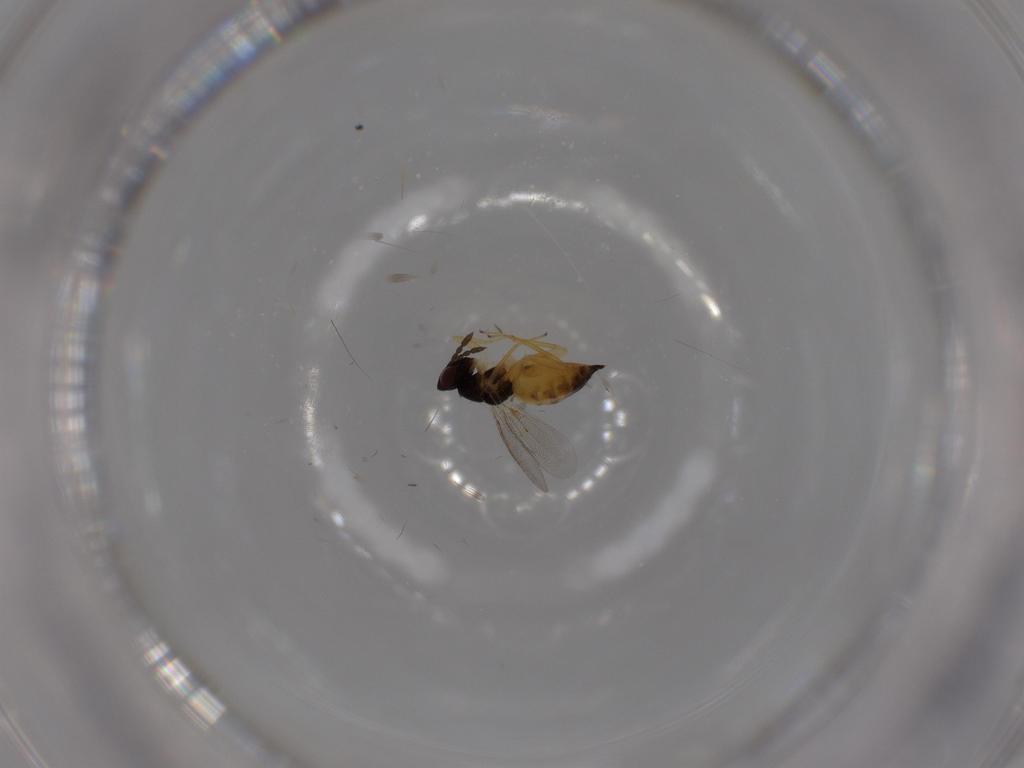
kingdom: Animalia
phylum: Arthropoda
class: Insecta
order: Hymenoptera
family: Eulophidae
